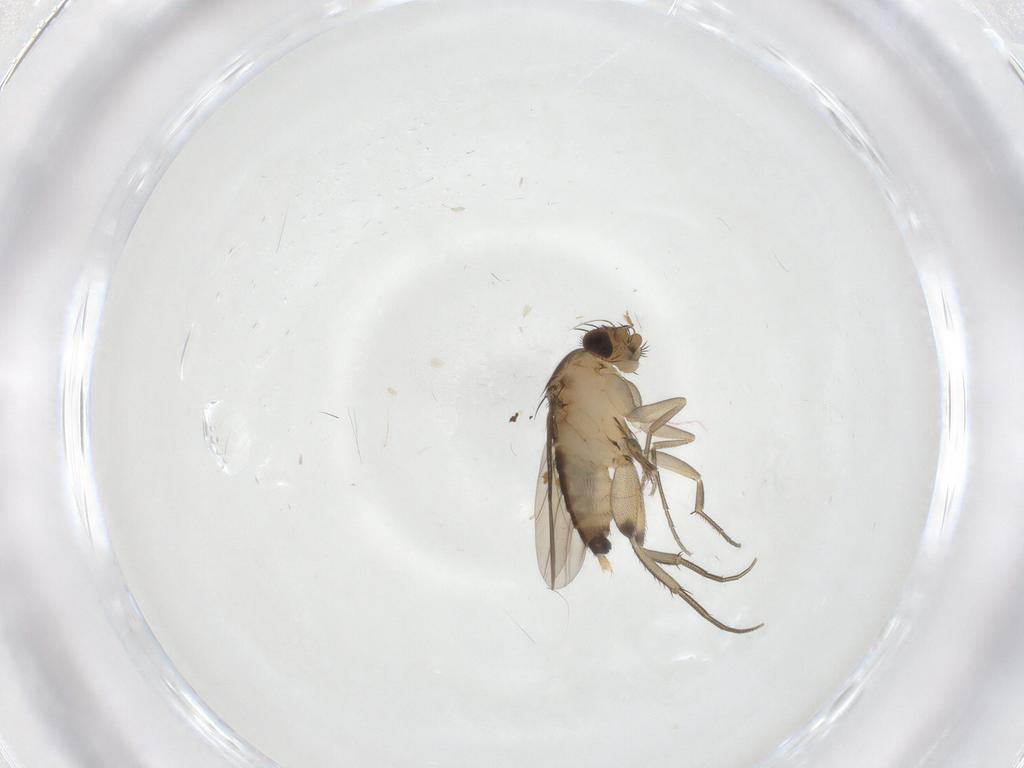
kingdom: Animalia
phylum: Arthropoda
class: Insecta
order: Diptera
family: Phoridae
